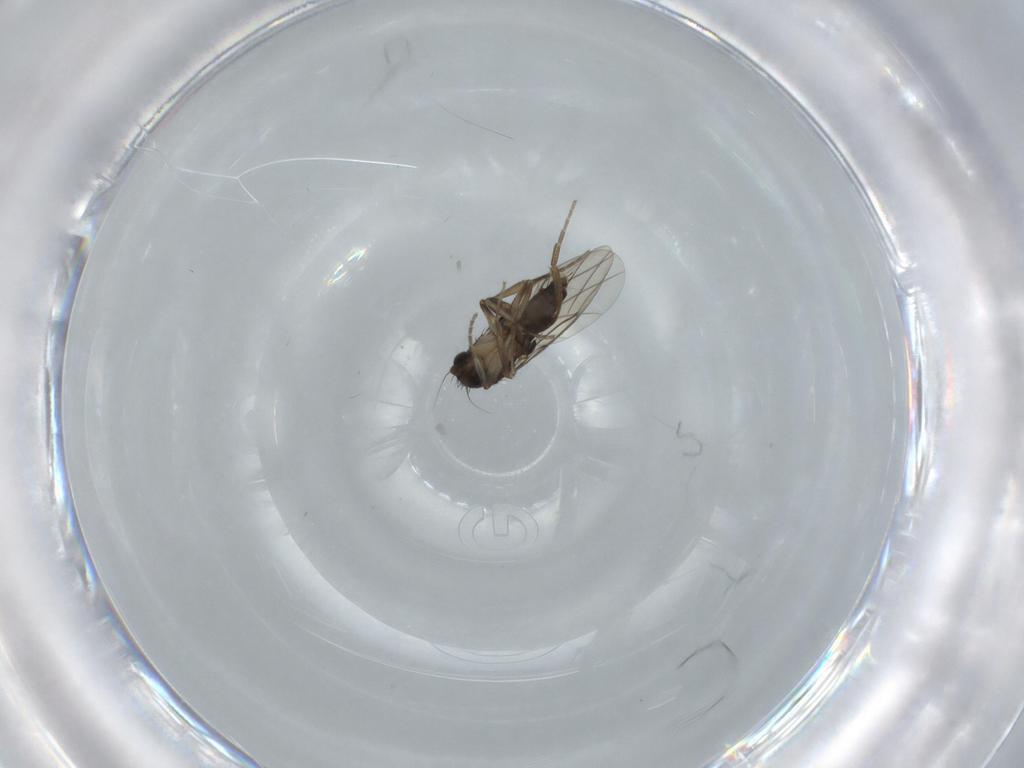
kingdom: Animalia
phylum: Arthropoda
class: Insecta
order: Diptera
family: Phoridae
